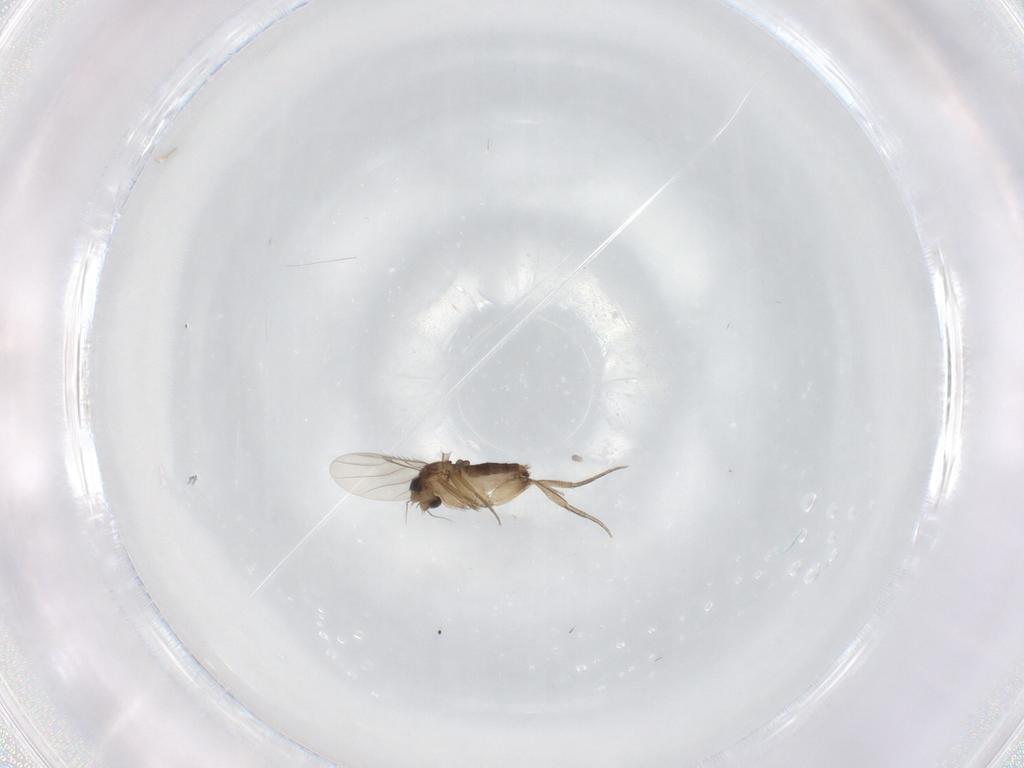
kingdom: Animalia
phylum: Arthropoda
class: Insecta
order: Diptera
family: Phoridae
